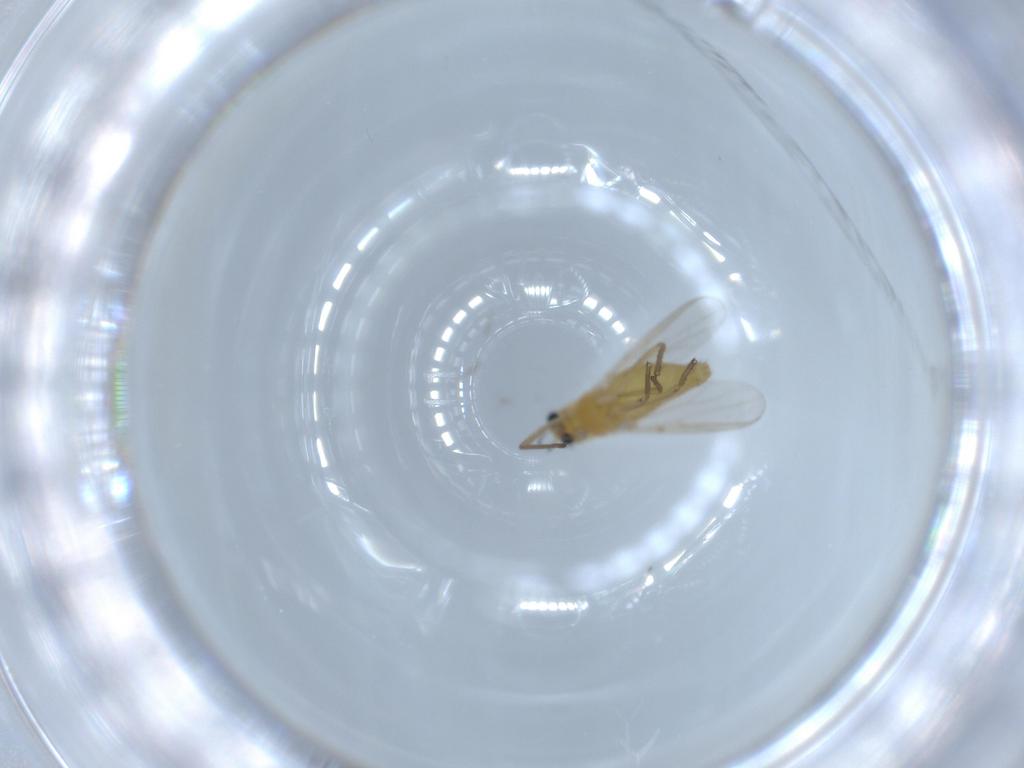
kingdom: Animalia
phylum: Arthropoda
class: Insecta
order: Diptera
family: Chironomidae
